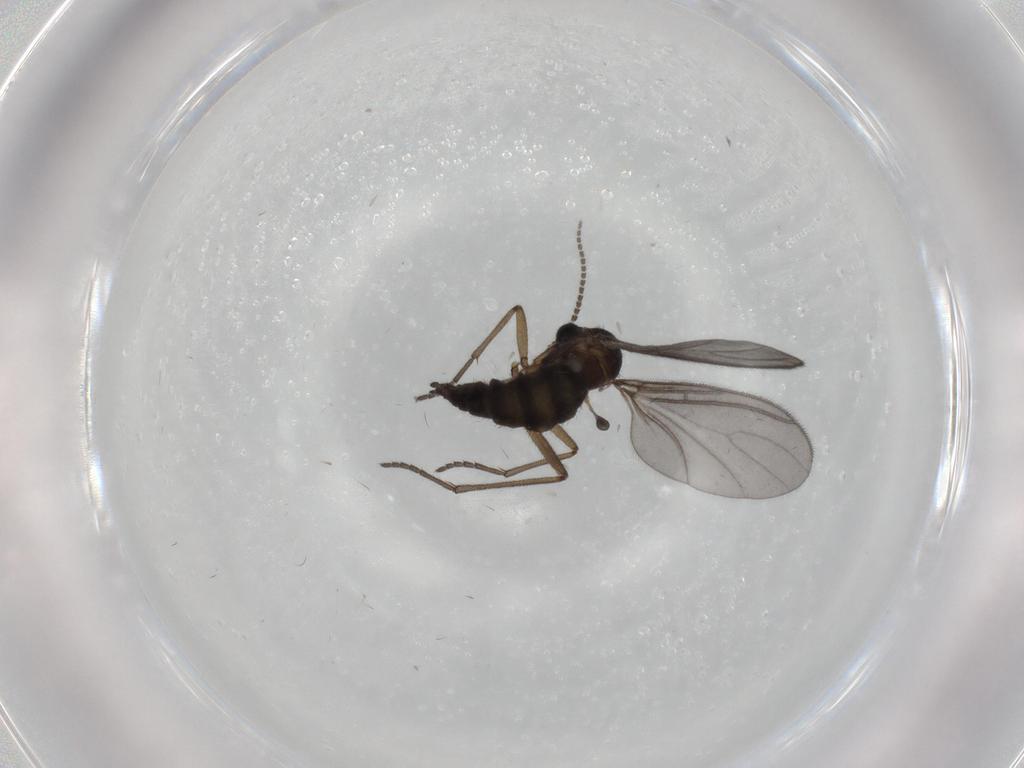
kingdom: Animalia
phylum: Arthropoda
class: Insecta
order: Diptera
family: Sciaridae
